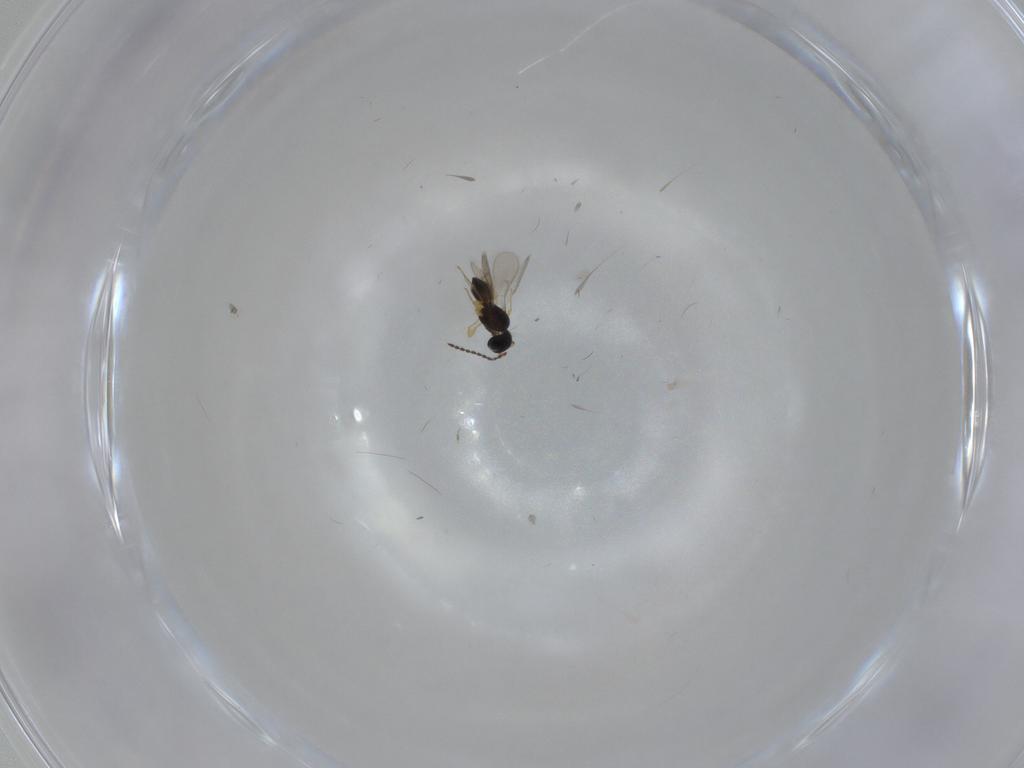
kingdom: Animalia
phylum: Arthropoda
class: Insecta
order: Hymenoptera
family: Scelionidae
